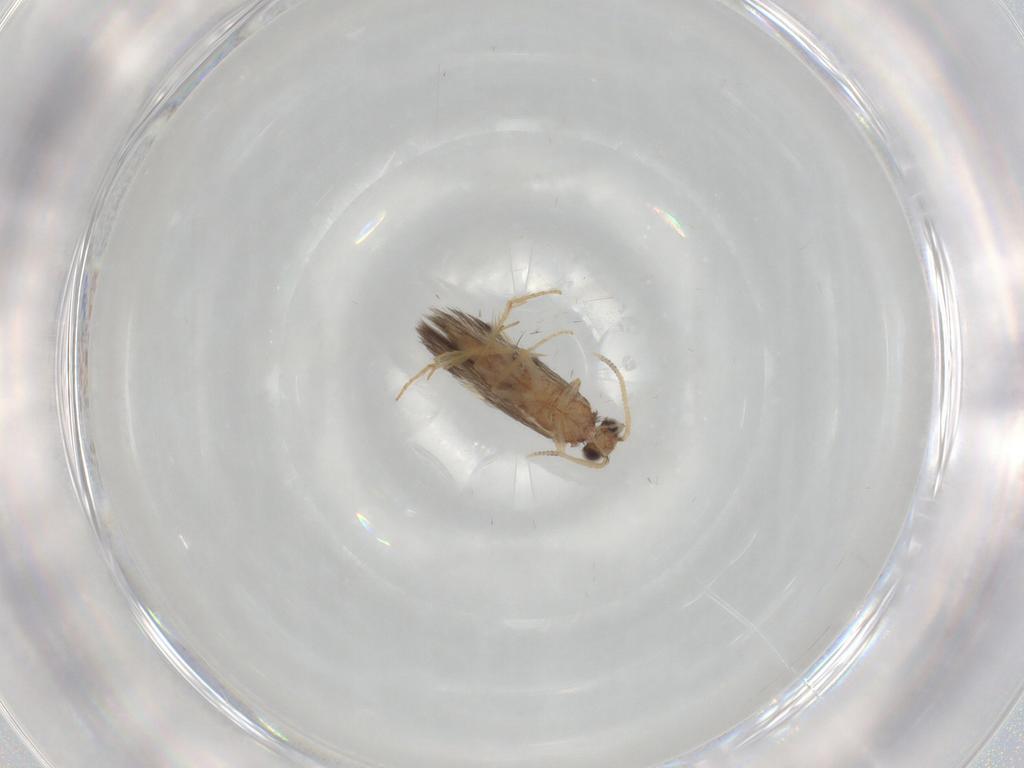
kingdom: Animalia
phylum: Arthropoda
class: Insecta
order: Trichoptera
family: Hydroptilidae
